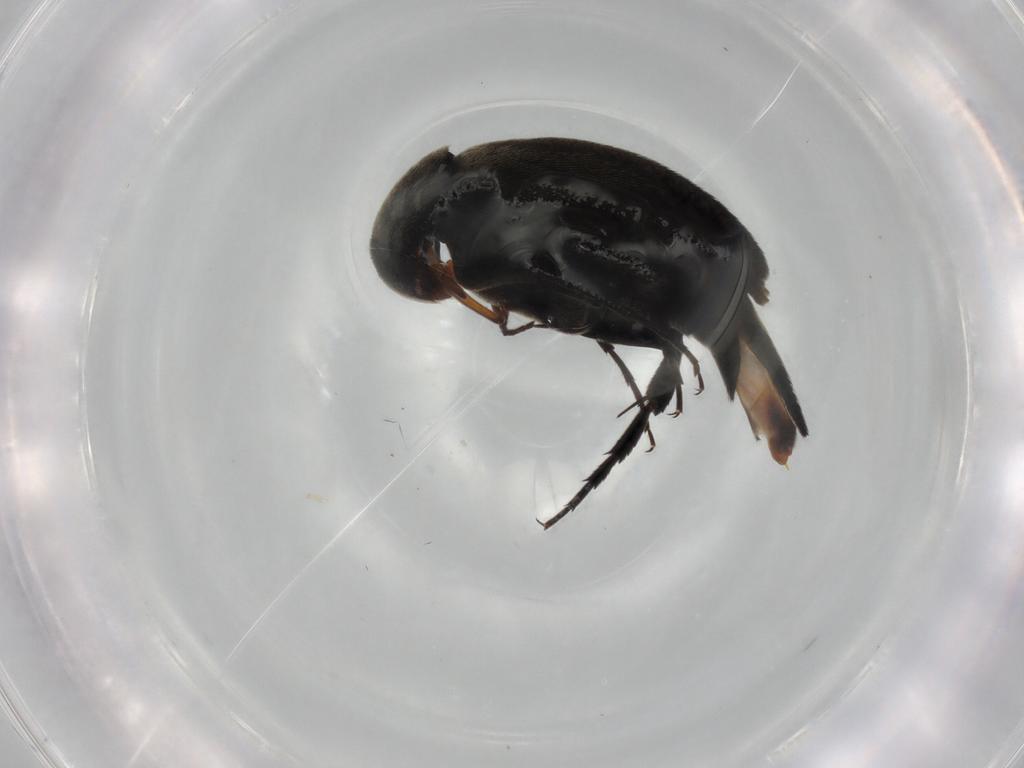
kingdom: Animalia
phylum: Arthropoda
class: Insecta
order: Coleoptera
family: Mordellidae
